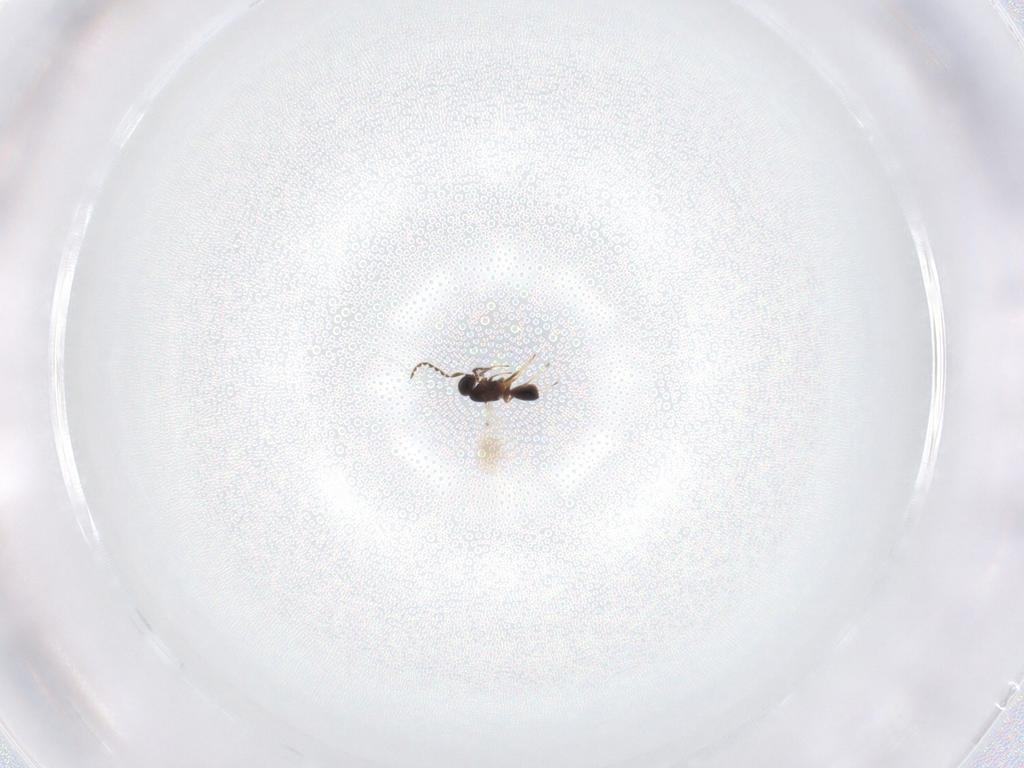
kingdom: Animalia
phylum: Arthropoda
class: Insecta
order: Hymenoptera
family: Platygastridae
